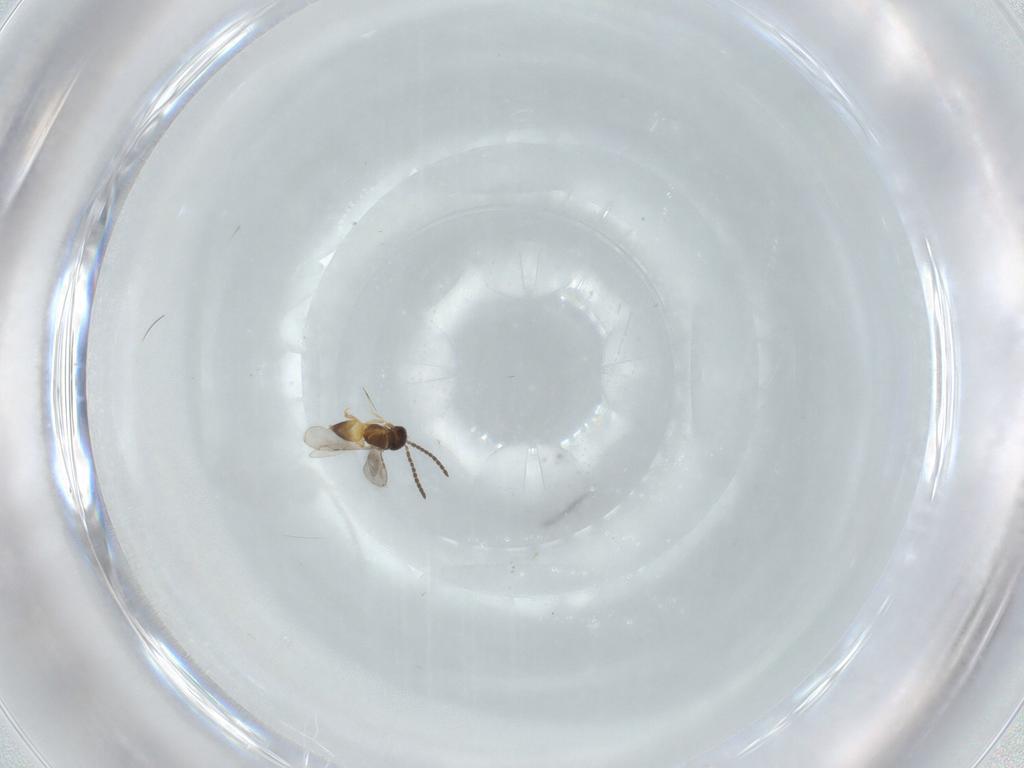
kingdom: Animalia
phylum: Arthropoda
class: Insecta
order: Hymenoptera
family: Ceraphronidae
